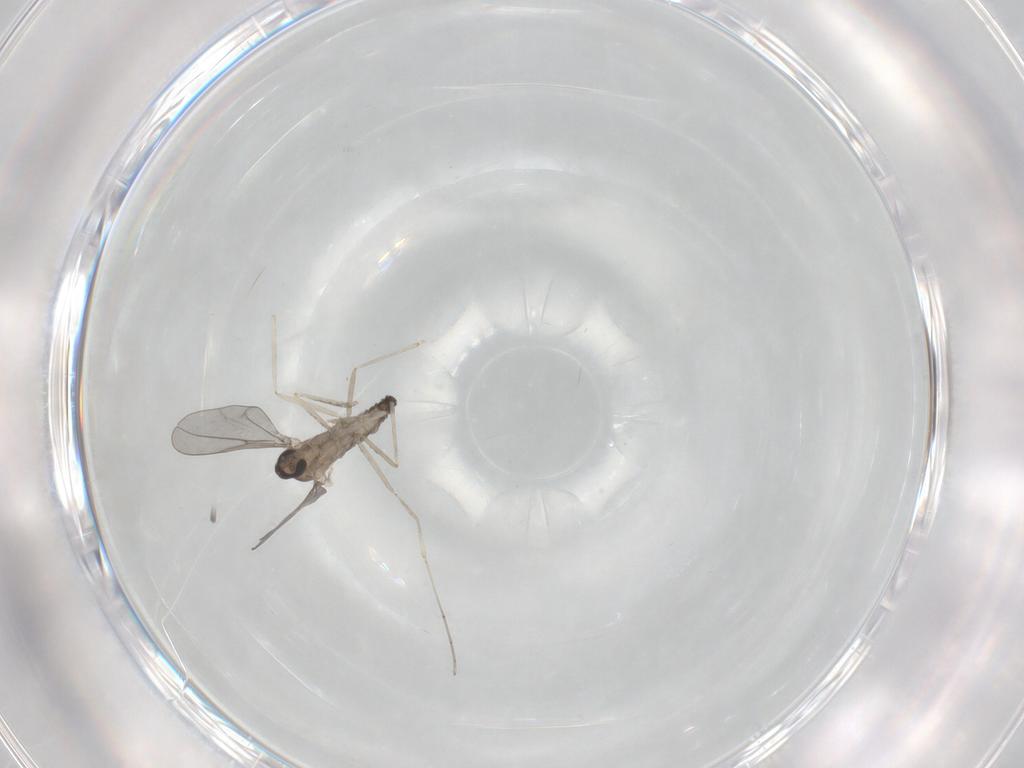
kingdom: Animalia
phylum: Arthropoda
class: Insecta
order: Diptera
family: Cecidomyiidae
